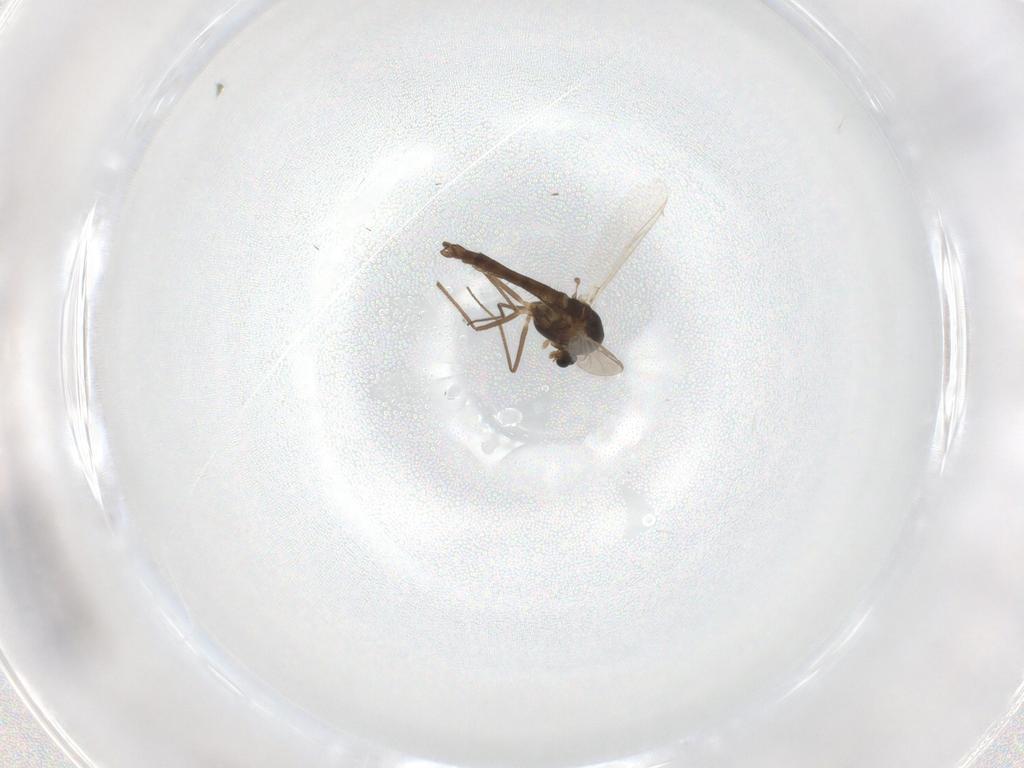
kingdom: Animalia
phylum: Arthropoda
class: Insecta
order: Diptera
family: Chironomidae
